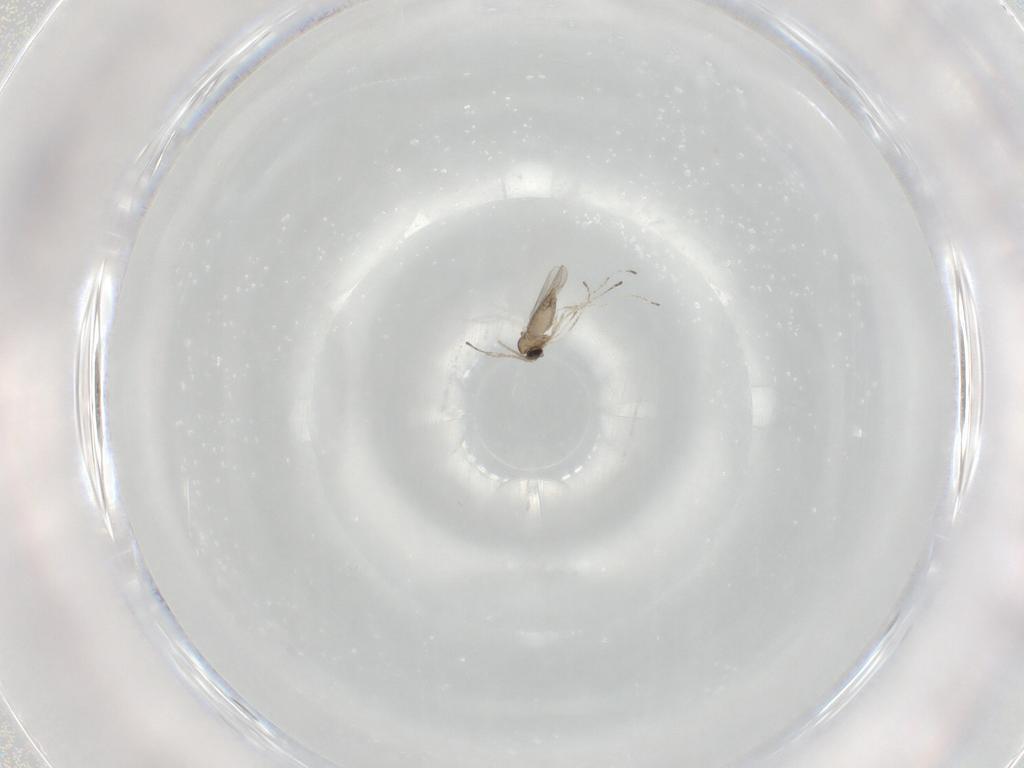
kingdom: Animalia
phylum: Arthropoda
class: Insecta
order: Diptera
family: Cecidomyiidae
